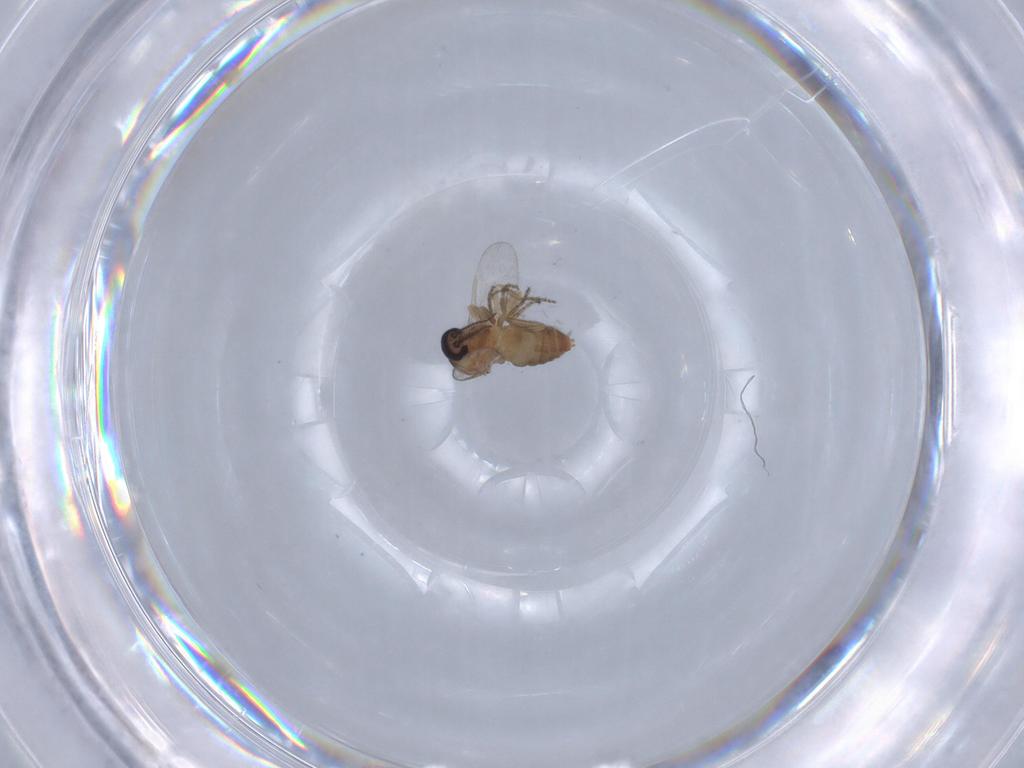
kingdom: Animalia
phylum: Arthropoda
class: Insecta
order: Diptera
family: Ceratopogonidae
